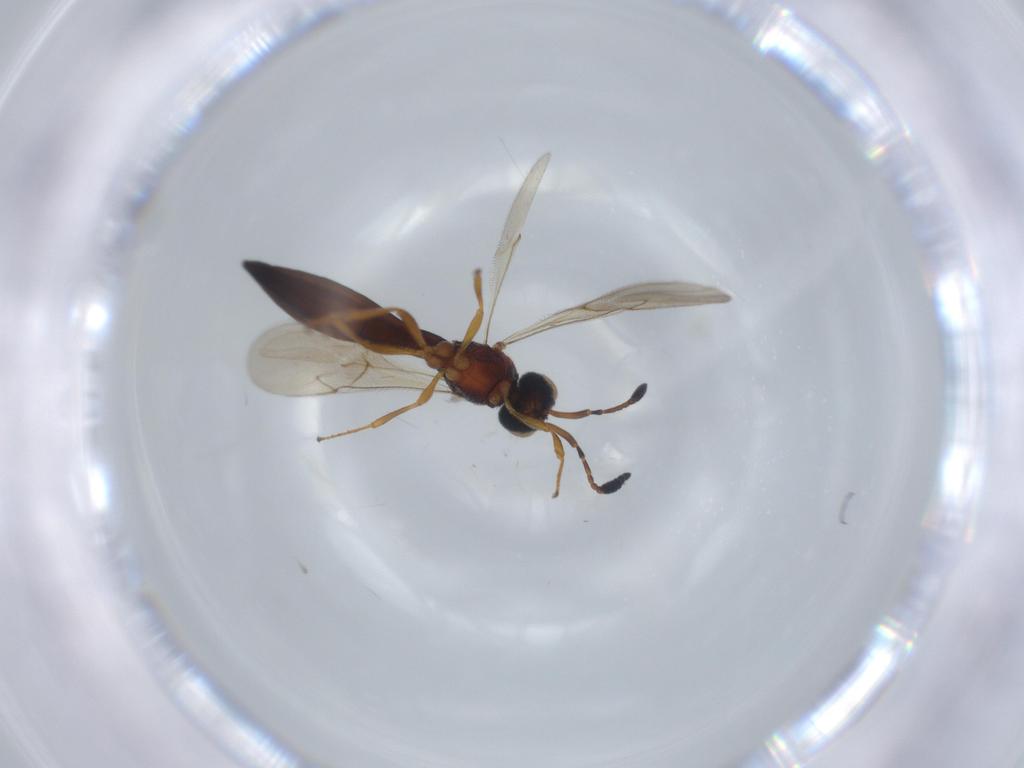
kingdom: Animalia
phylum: Arthropoda
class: Insecta
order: Hymenoptera
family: Scelionidae
